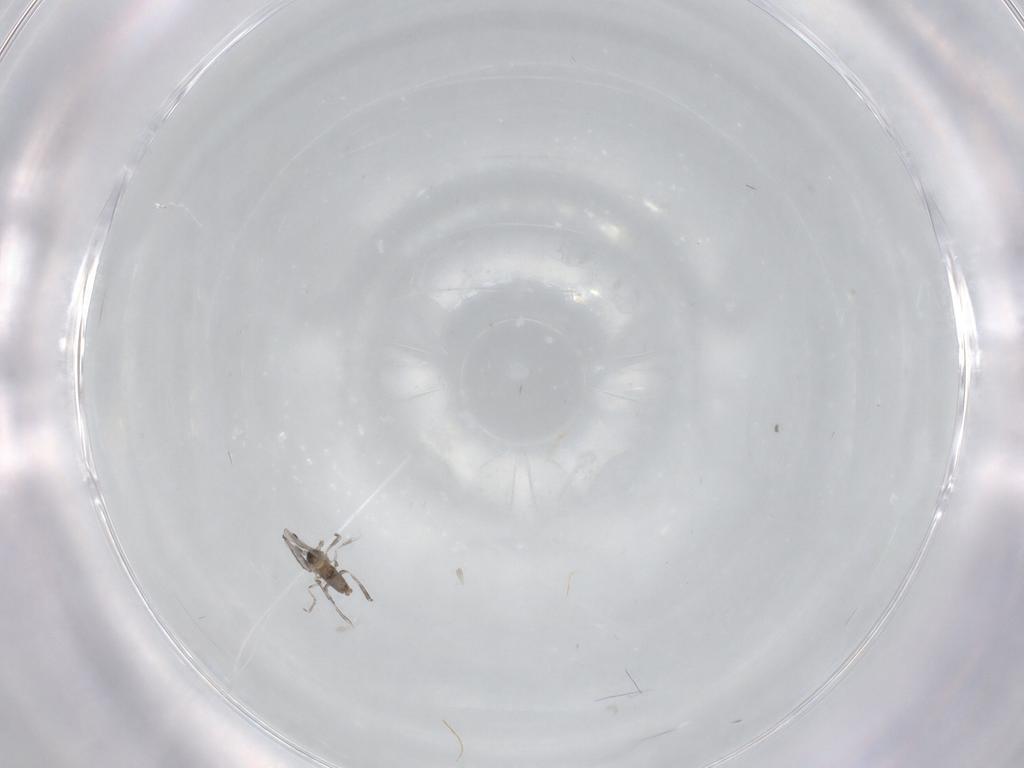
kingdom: Animalia
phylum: Arthropoda
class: Insecta
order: Diptera
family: Cecidomyiidae
